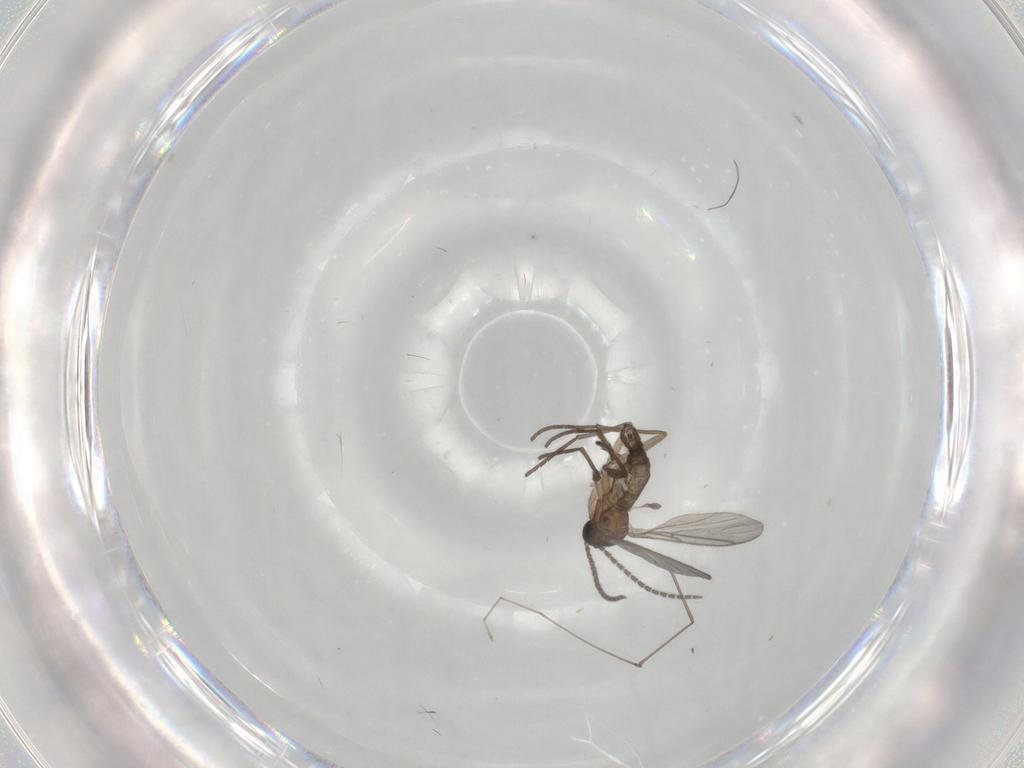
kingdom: Animalia
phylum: Arthropoda
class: Insecta
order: Diptera
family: Cecidomyiidae
